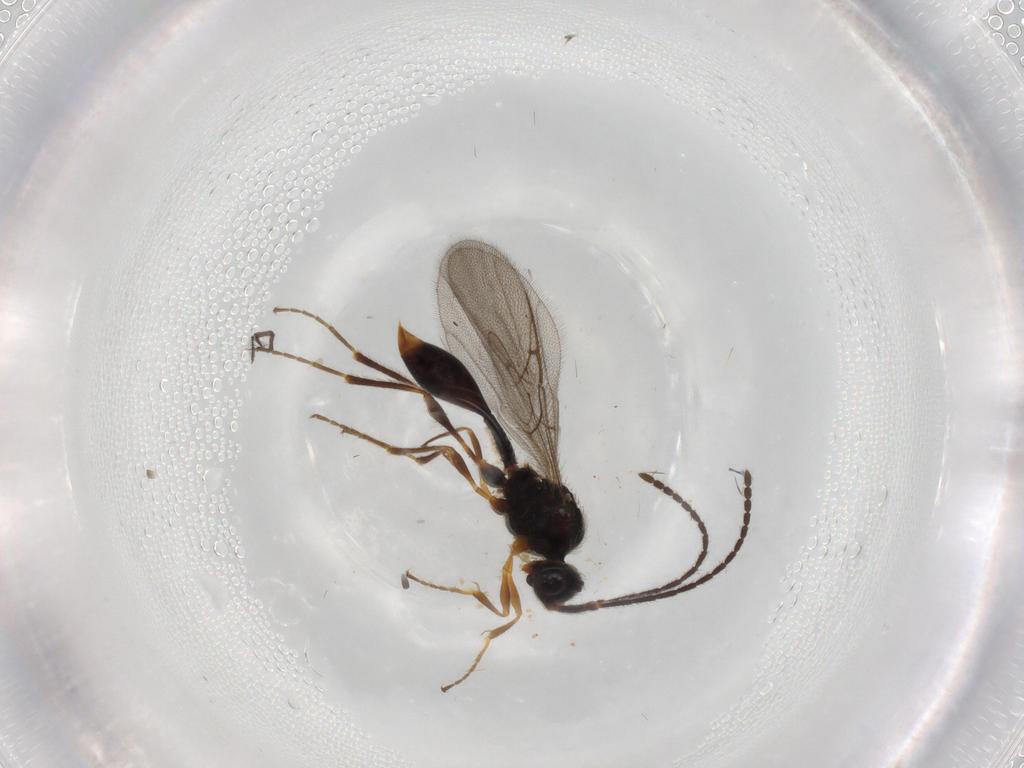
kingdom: Animalia
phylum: Arthropoda
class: Insecta
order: Hymenoptera
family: Diapriidae
